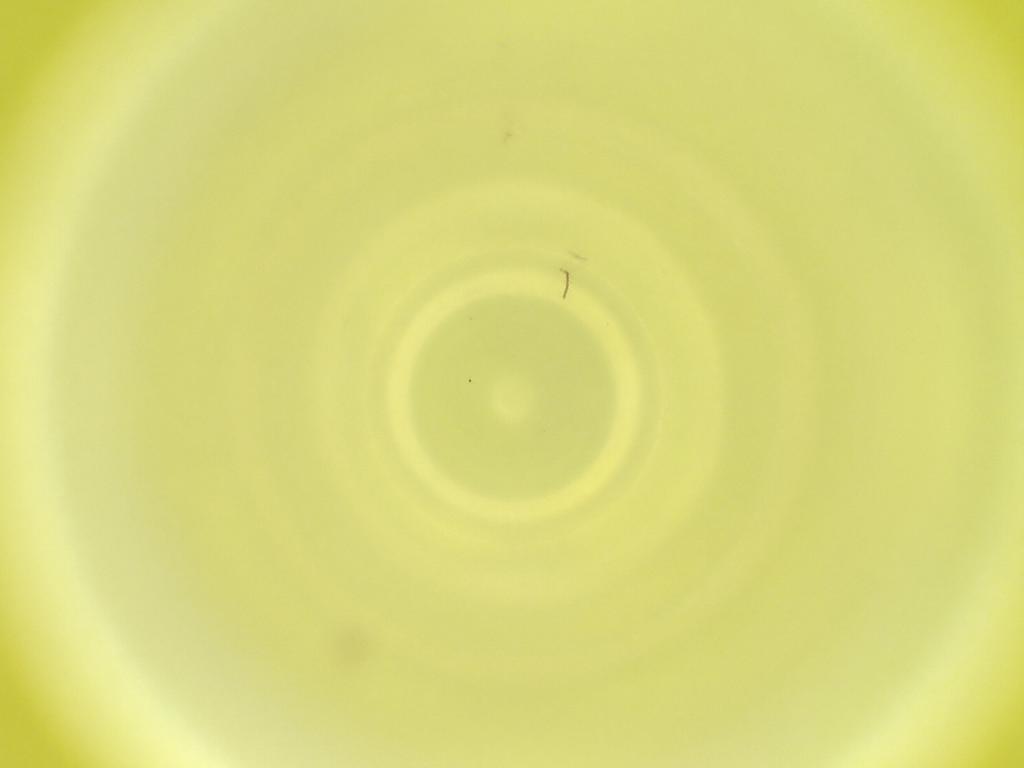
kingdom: Animalia
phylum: Arthropoda
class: Insecta
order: Diptera
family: Cecidomyiidae
